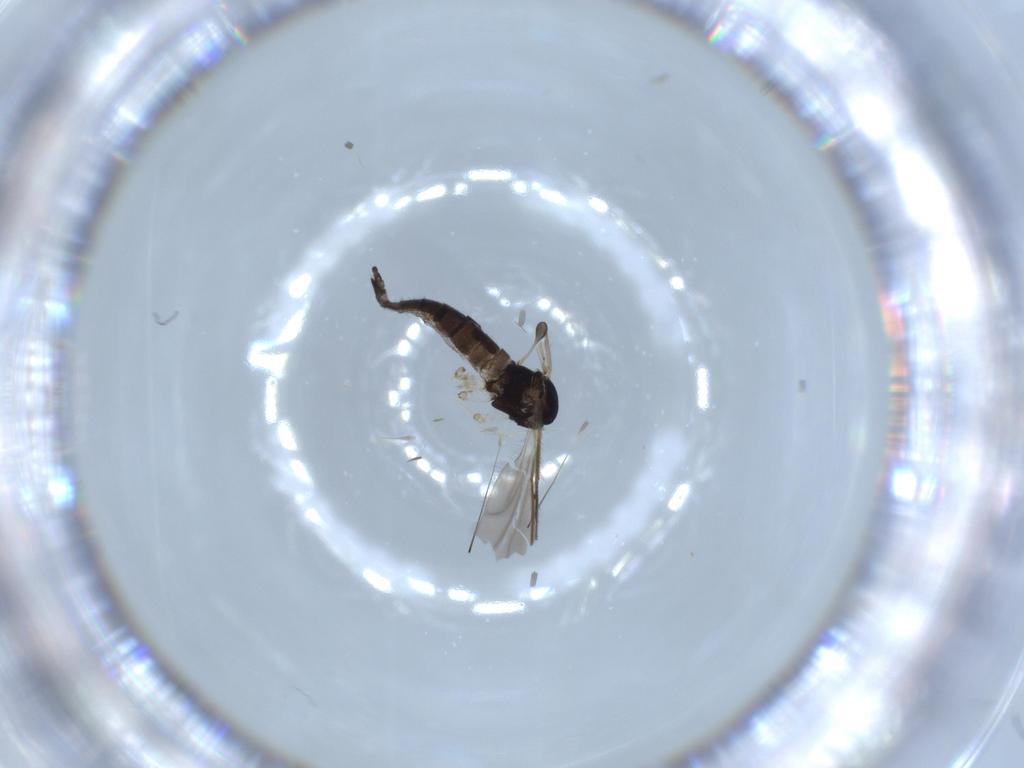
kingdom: Animalia
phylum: Arthropoda
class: Insecta
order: Diptera
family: Sciaridae
